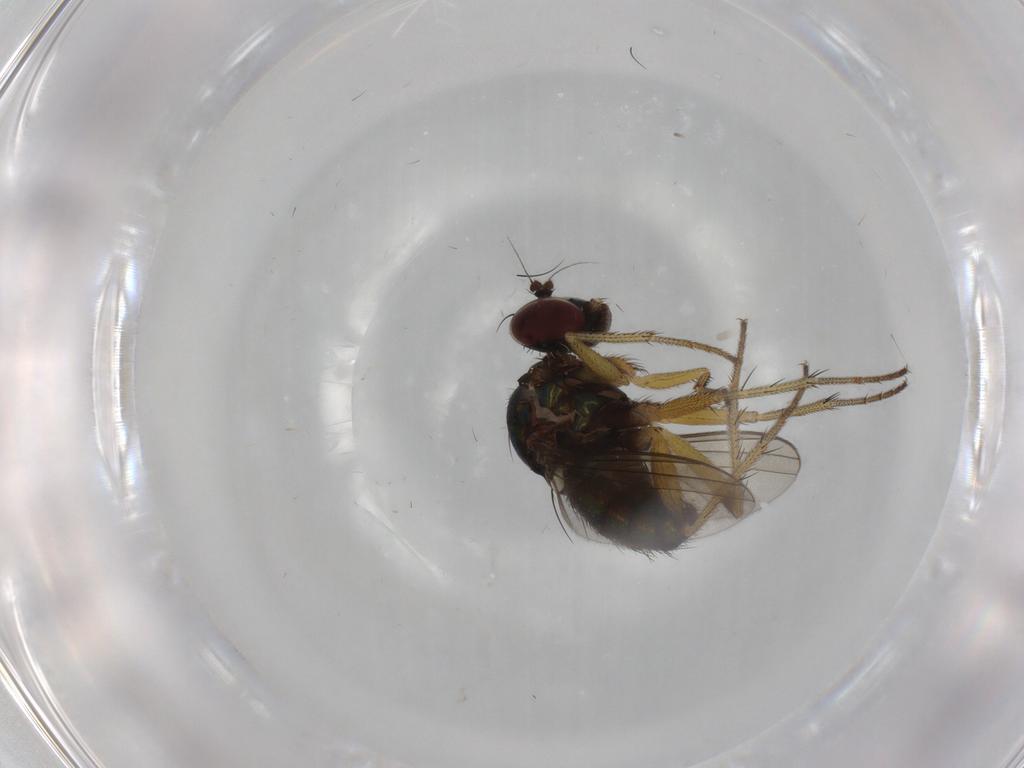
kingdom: Animalia
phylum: Arthropoda
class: Insecta
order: Diptera
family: Dolichopodidae
